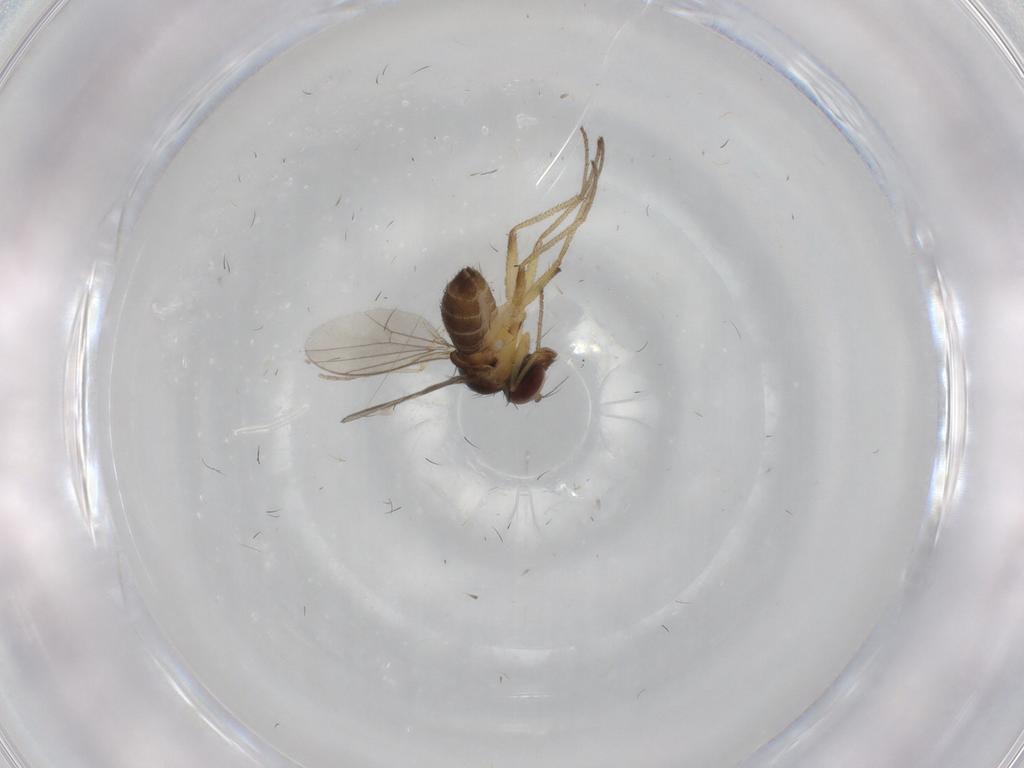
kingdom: Animalia
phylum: Arthropoda
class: Insecta
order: Diptera
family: Dolichopodidae
